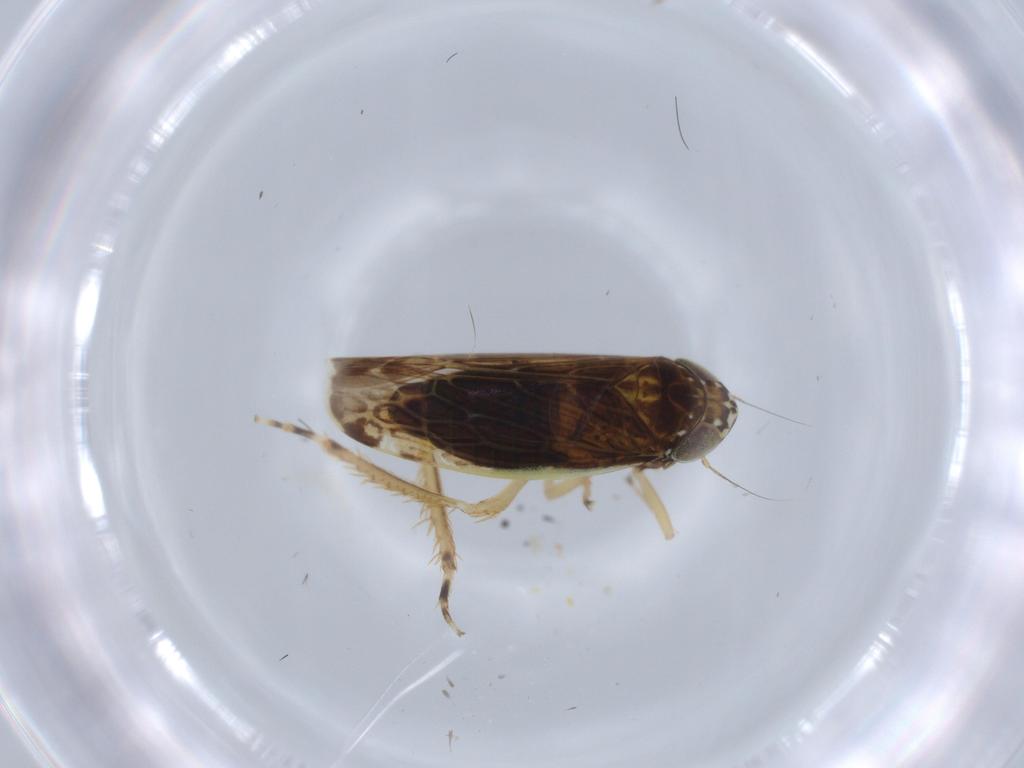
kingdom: Animalia
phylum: Arthropoda
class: Insecta
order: Hemiptera
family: Cicadellidae
